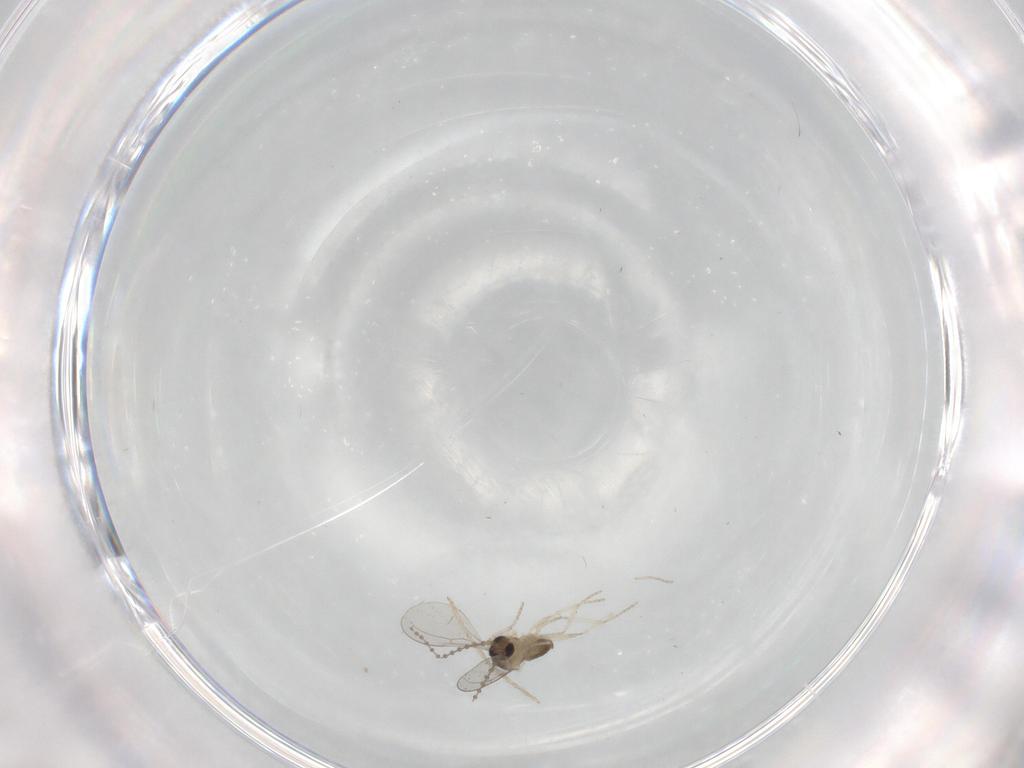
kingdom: Animalia
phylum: Arthropoda
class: Insecta
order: Diptera
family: Cecidomyiidae
